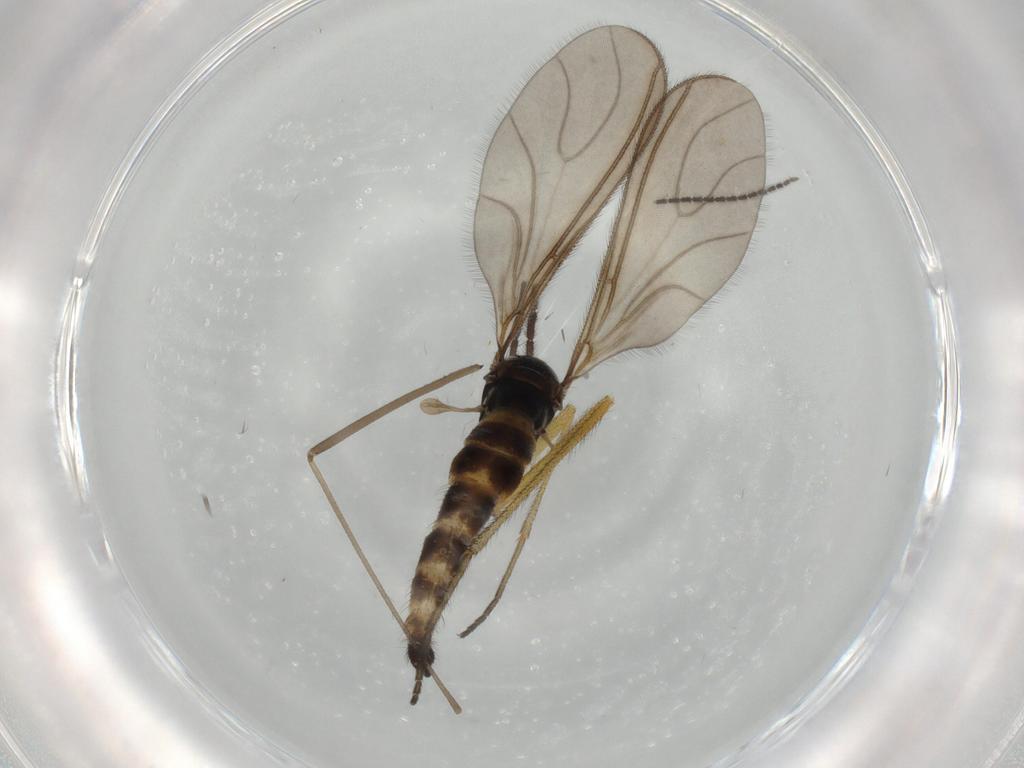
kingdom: Animalia
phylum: Arthropoda
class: Insecta
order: Diptera
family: Sciaridae
